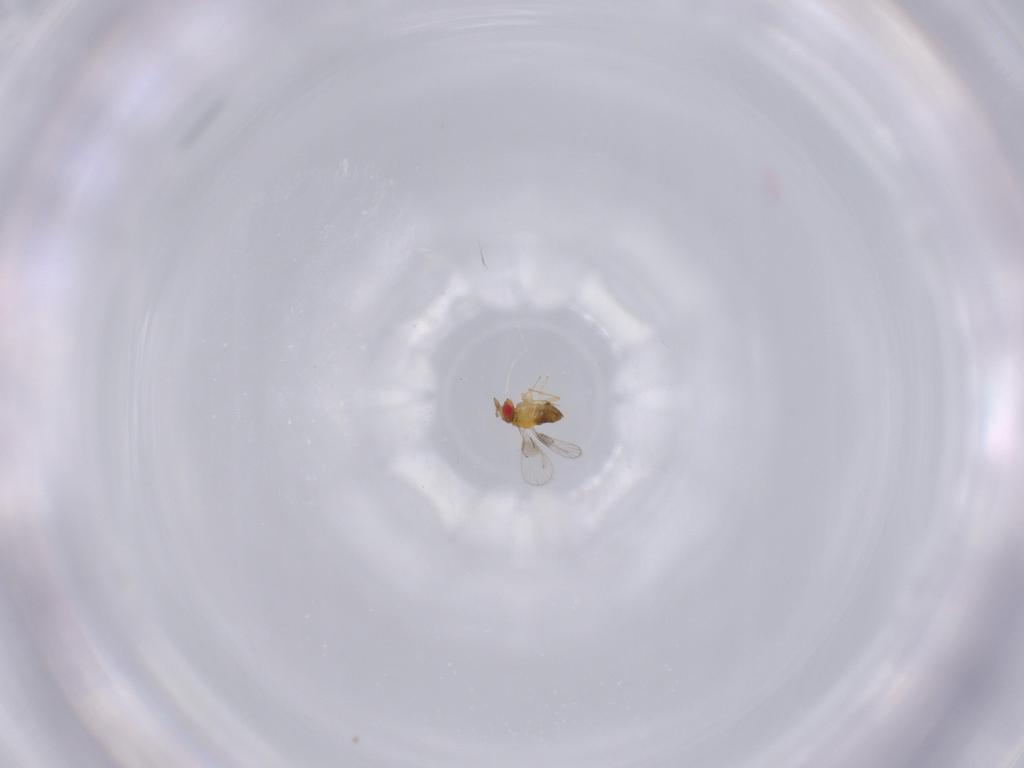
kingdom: Animalia
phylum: Arthropoda
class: Insecta
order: Hymenoptera
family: Trichogrammatidae
